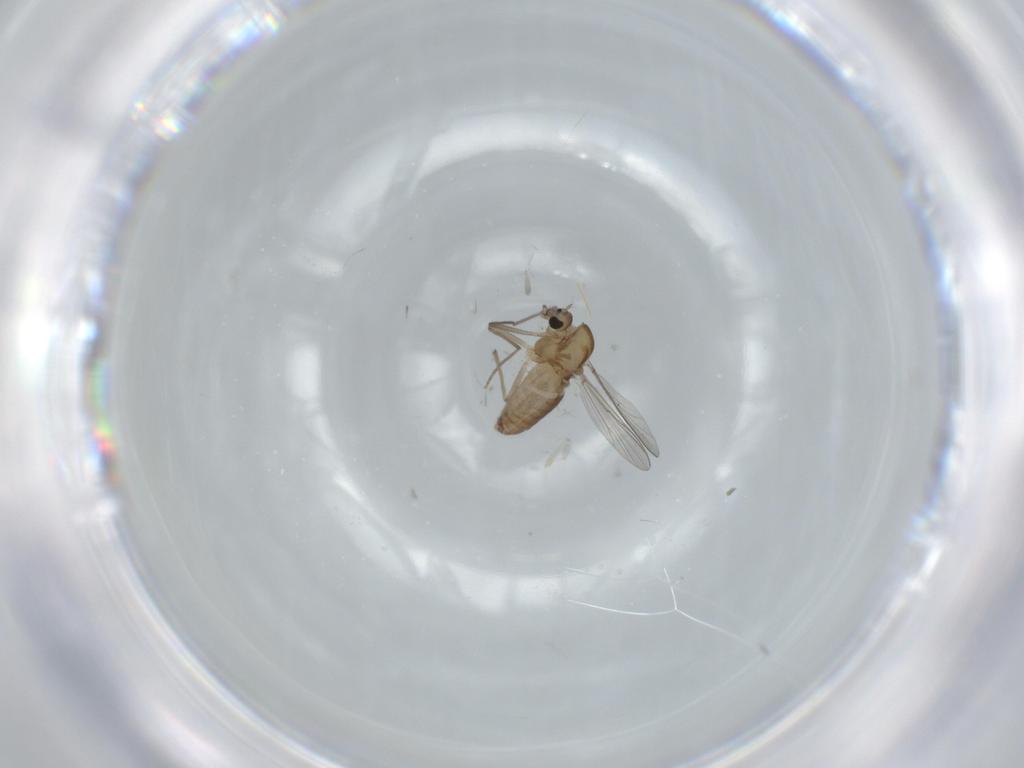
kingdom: Animalia
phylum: Arthropoda
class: Insecta
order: Diptera
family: Chironomidae
